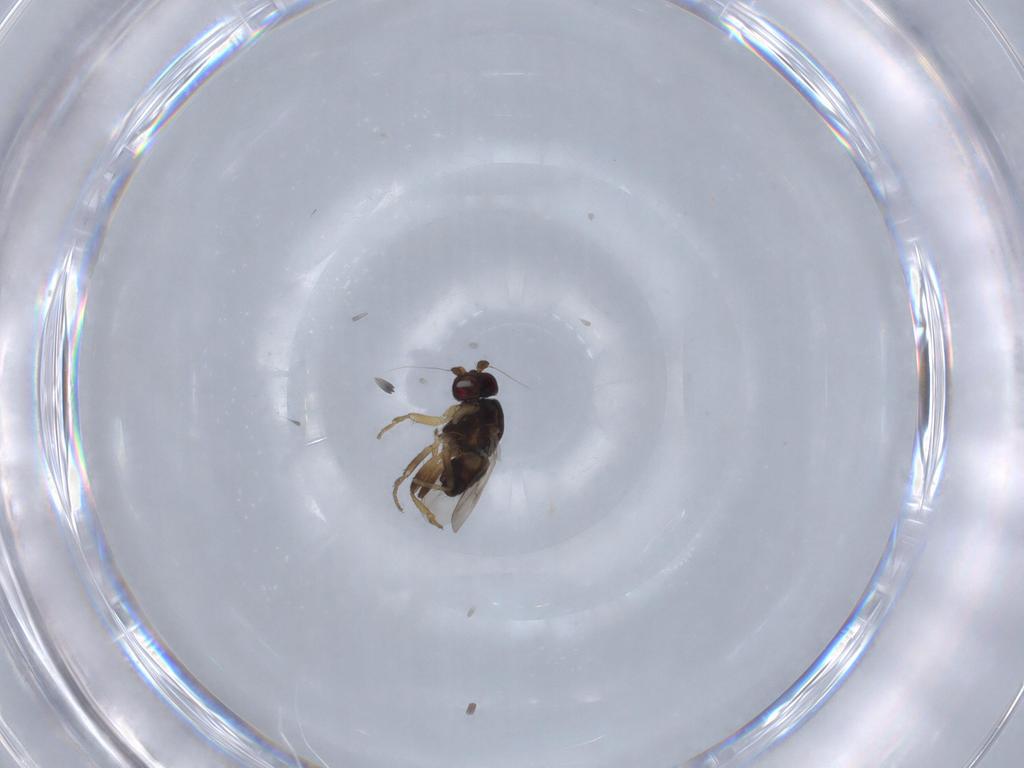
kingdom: Animalia
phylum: Arthropoda
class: Insecta
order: Diptera
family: Sphaeroceridae
